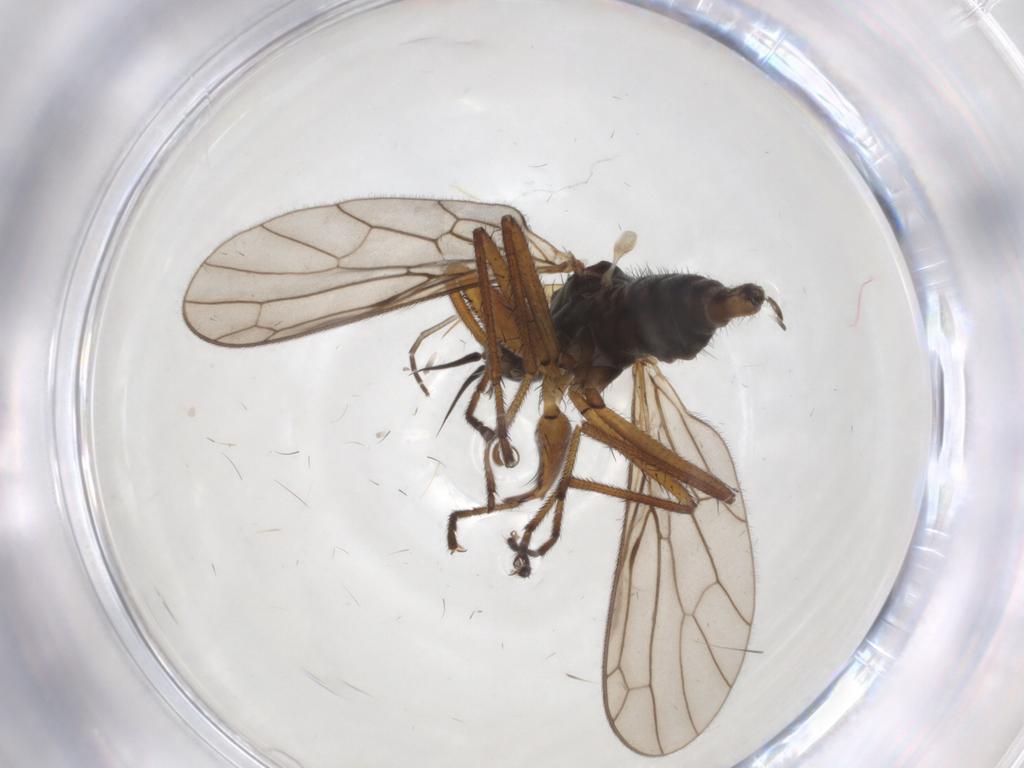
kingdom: Animalia
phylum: Arthropoda
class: Insecta
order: Diptera
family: Mycetophilidae
